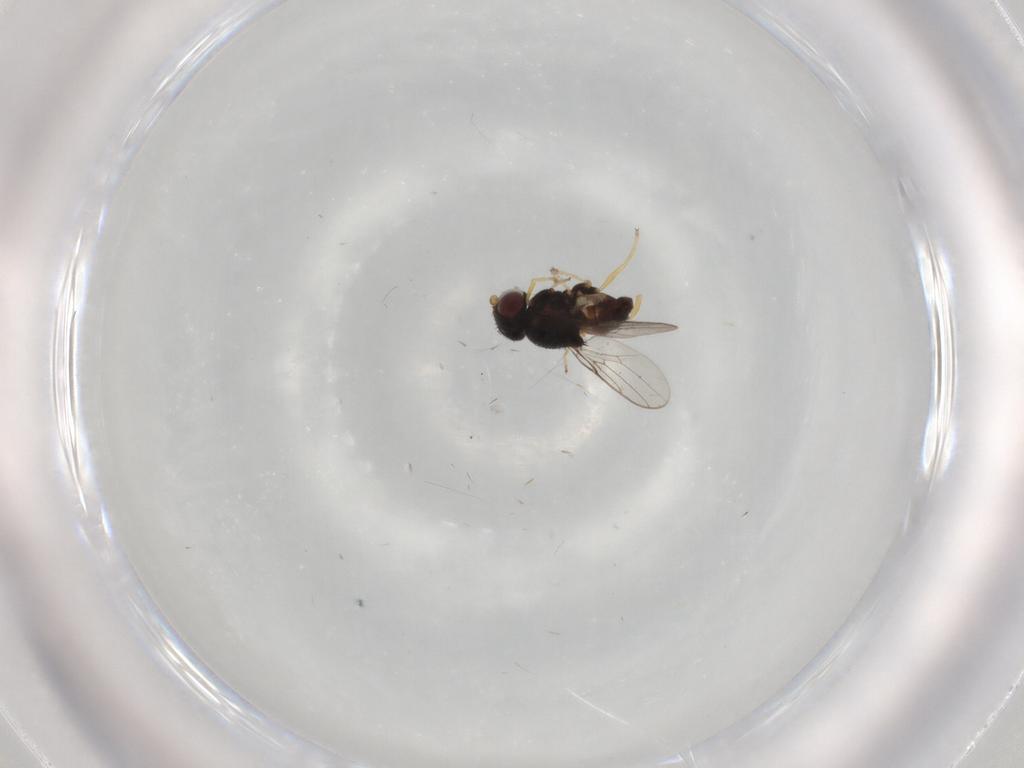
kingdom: Animalia
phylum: Arthropoda
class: Insecta
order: Diptera
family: Chloropidae
